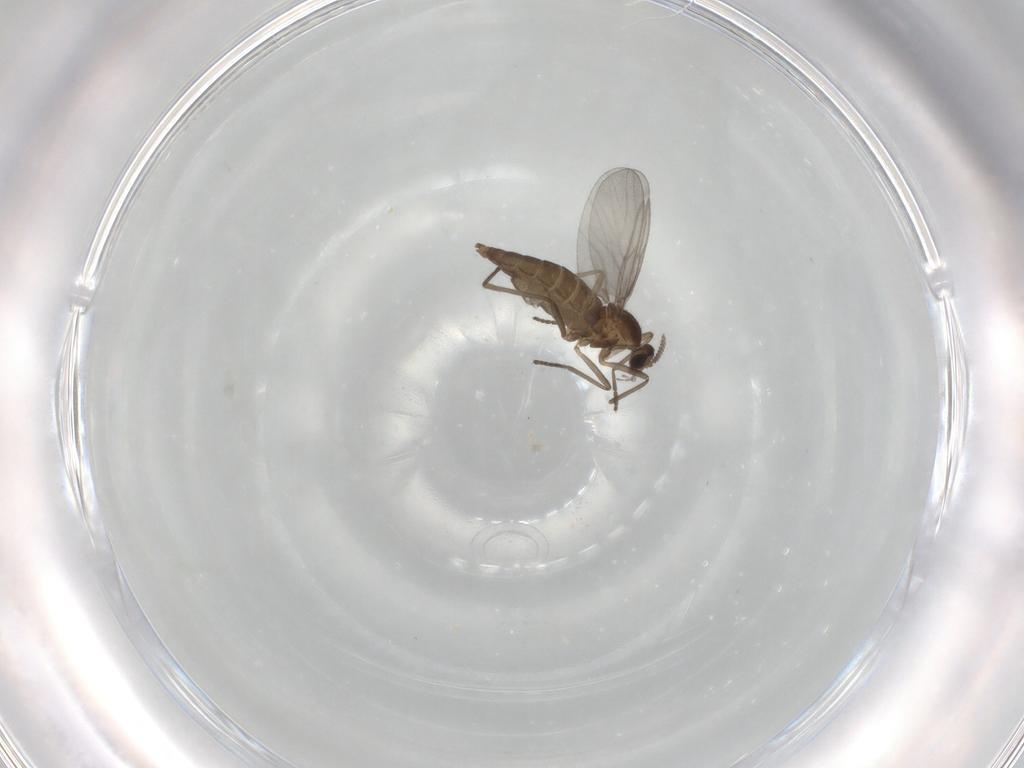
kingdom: Animalia
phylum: Arthropoda
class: Insecta
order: Diptera
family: Cecidomyiidae
